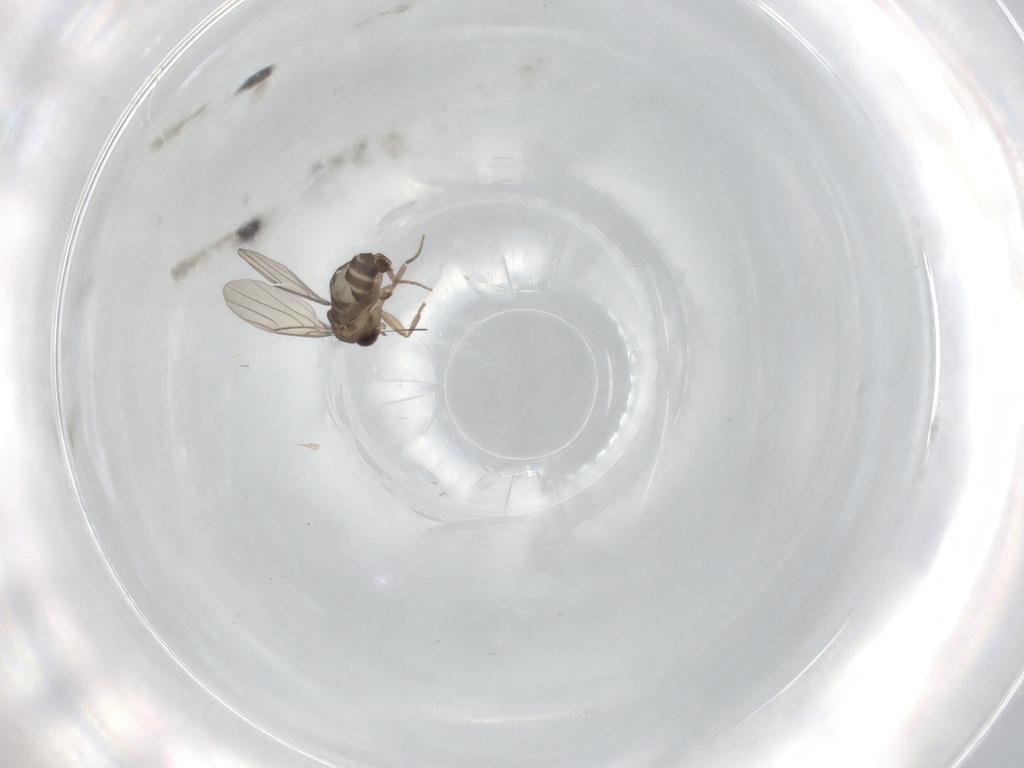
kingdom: Animalia
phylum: Arthropoda
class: Insecta
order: Diptera
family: Phoridae
